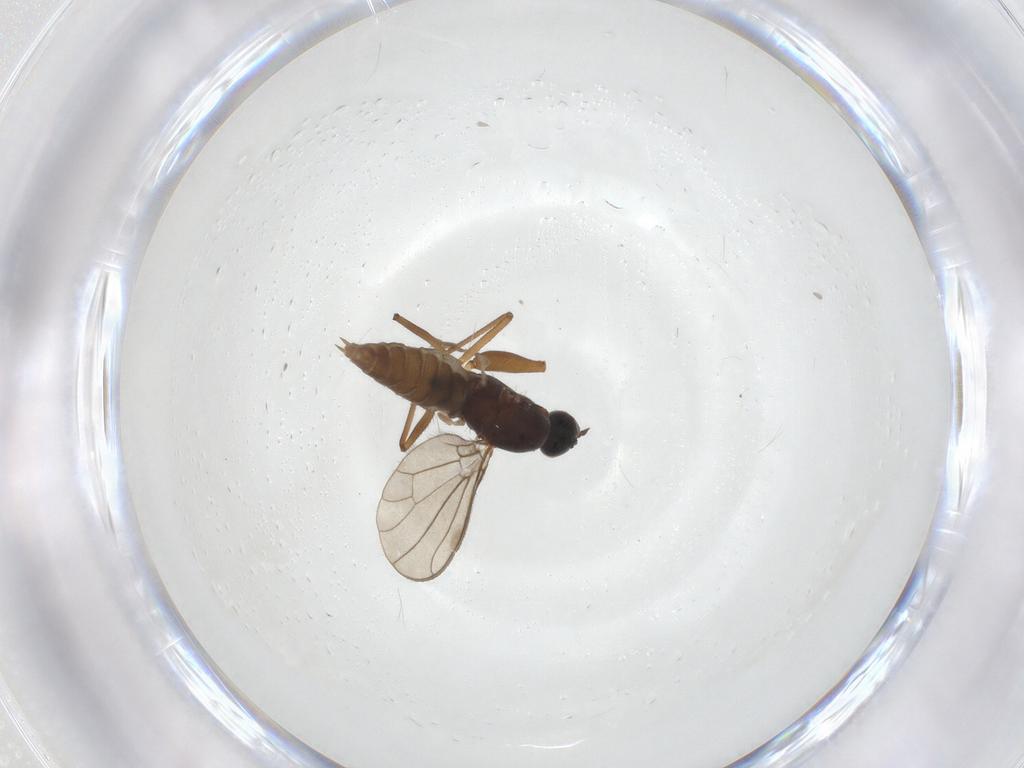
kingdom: Animalia
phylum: Arthropoda
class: Insecta
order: Diptera
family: Empididae
